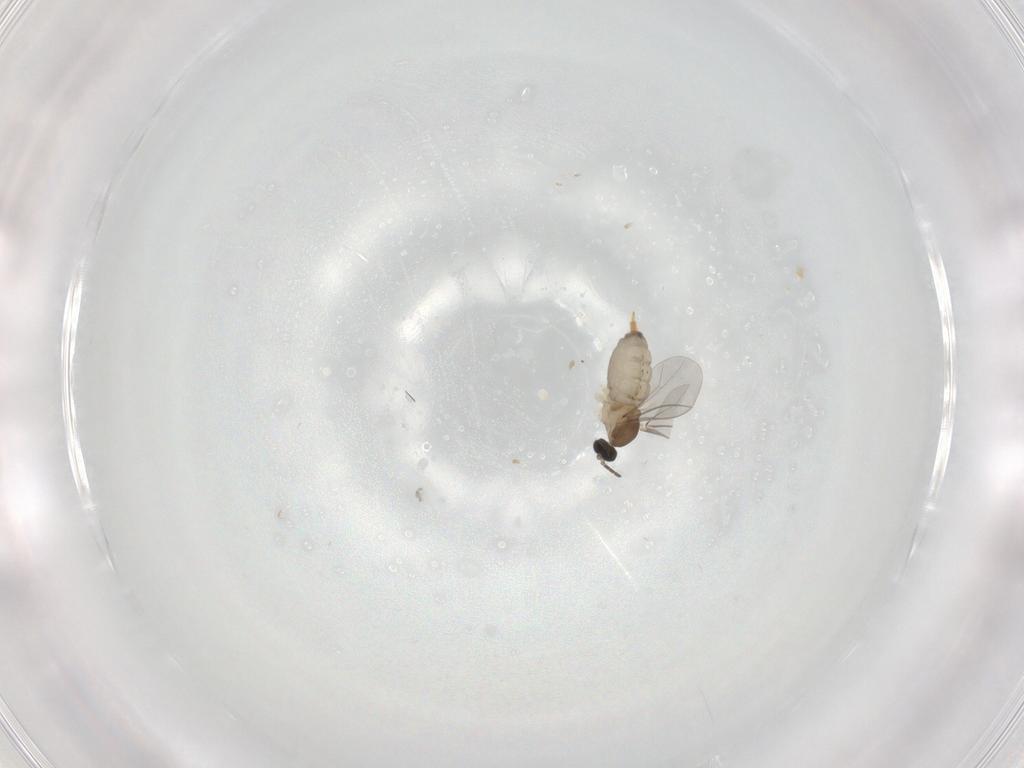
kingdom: Animalia
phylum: Arthropoda
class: Insecta
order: Diptera
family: Cecidomyiidae
